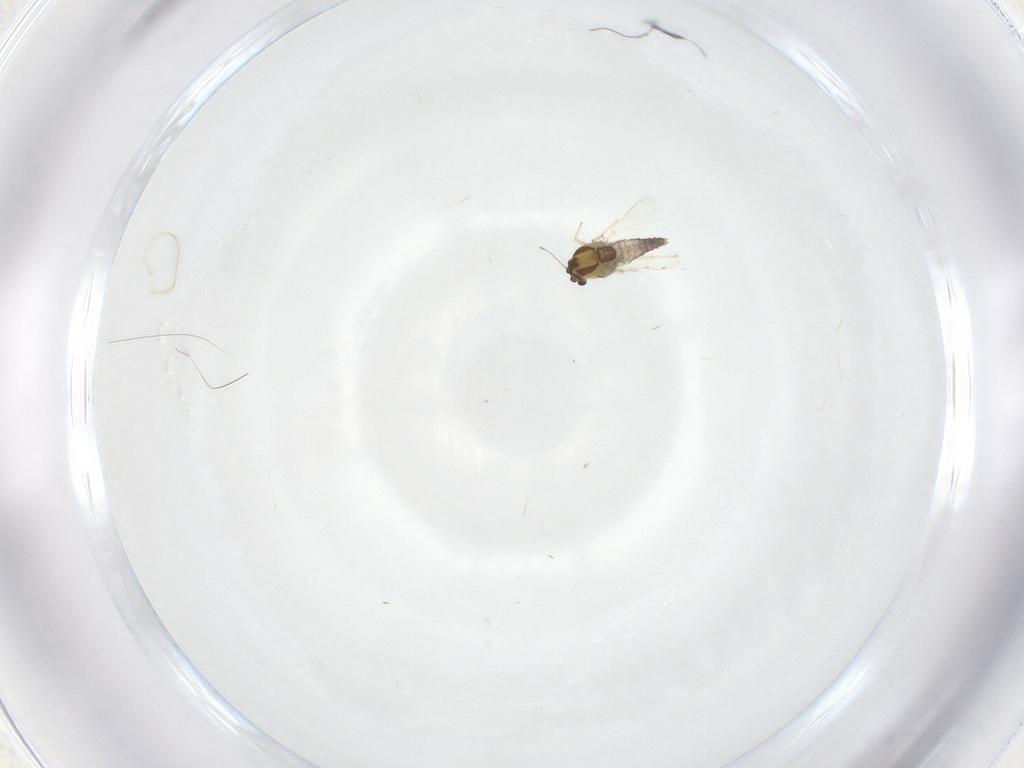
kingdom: Animalia
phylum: Arthropoda
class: Insecta
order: Diptera
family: Chironomidae
